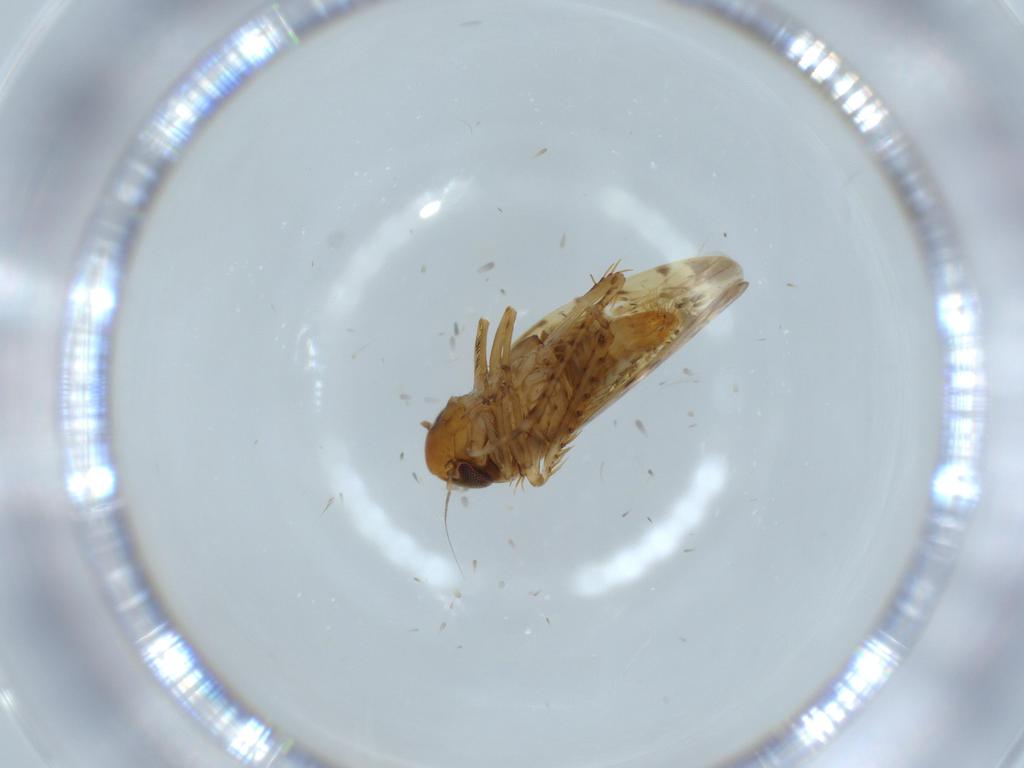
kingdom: Animalia
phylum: Arthropoda
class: Insecta
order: Hemiptera
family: Cicadellidae
